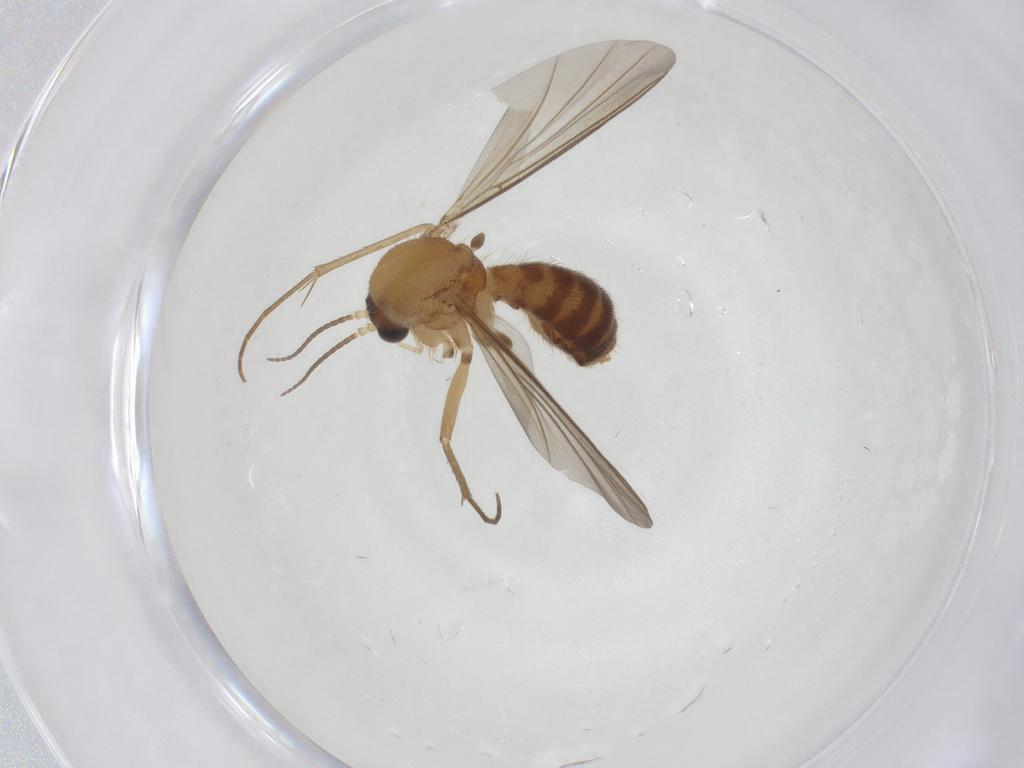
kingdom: Animalia
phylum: Arthropoda
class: Insecta
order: Diptera
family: Mycetophilidae
